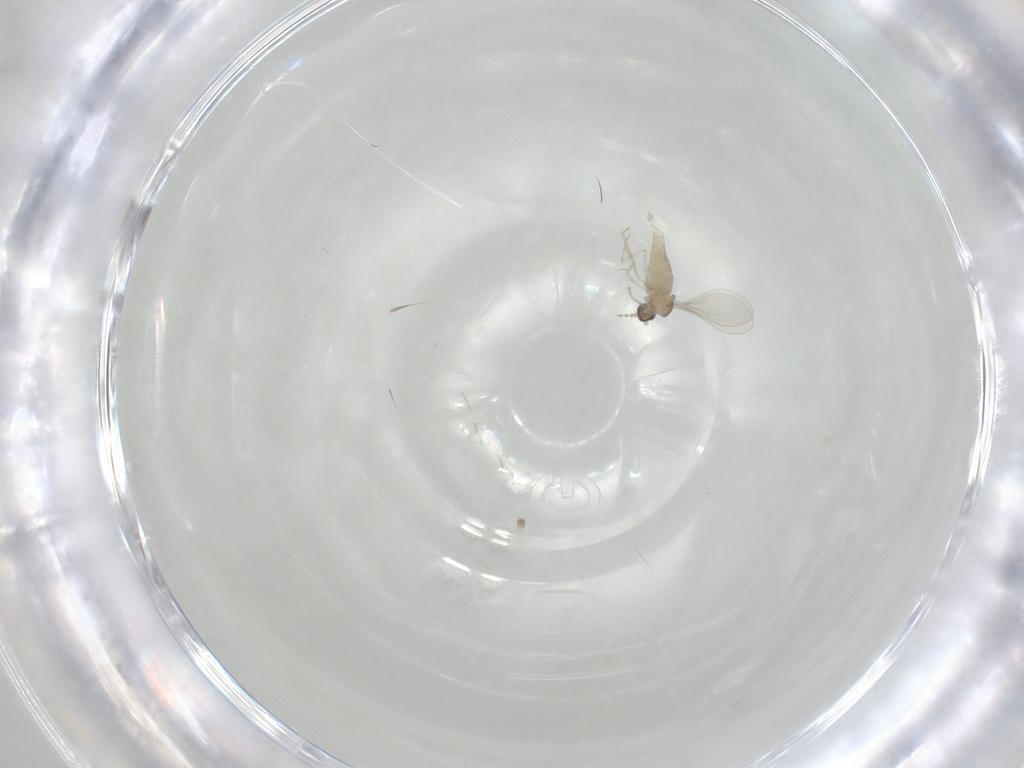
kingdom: Animalia
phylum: Arthropoda
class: Insecta
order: Diptera
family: Cecidomyiidae
